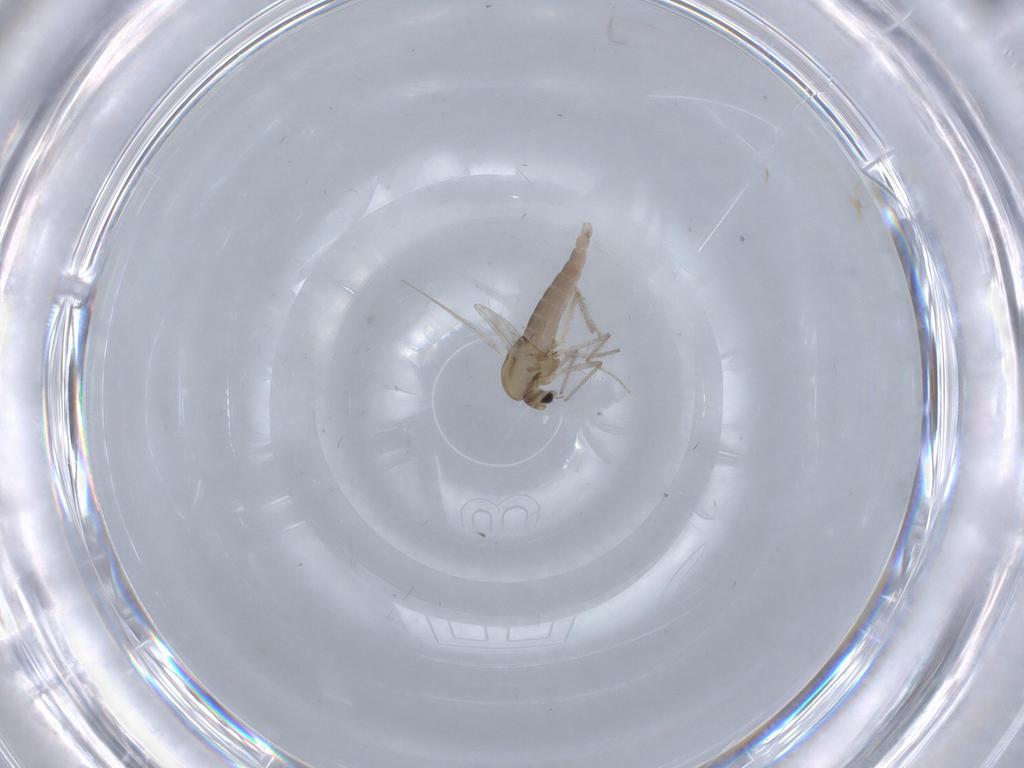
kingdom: Animalia
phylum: Arthropoda
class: Insecta
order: Diptera
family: Chironomidae
